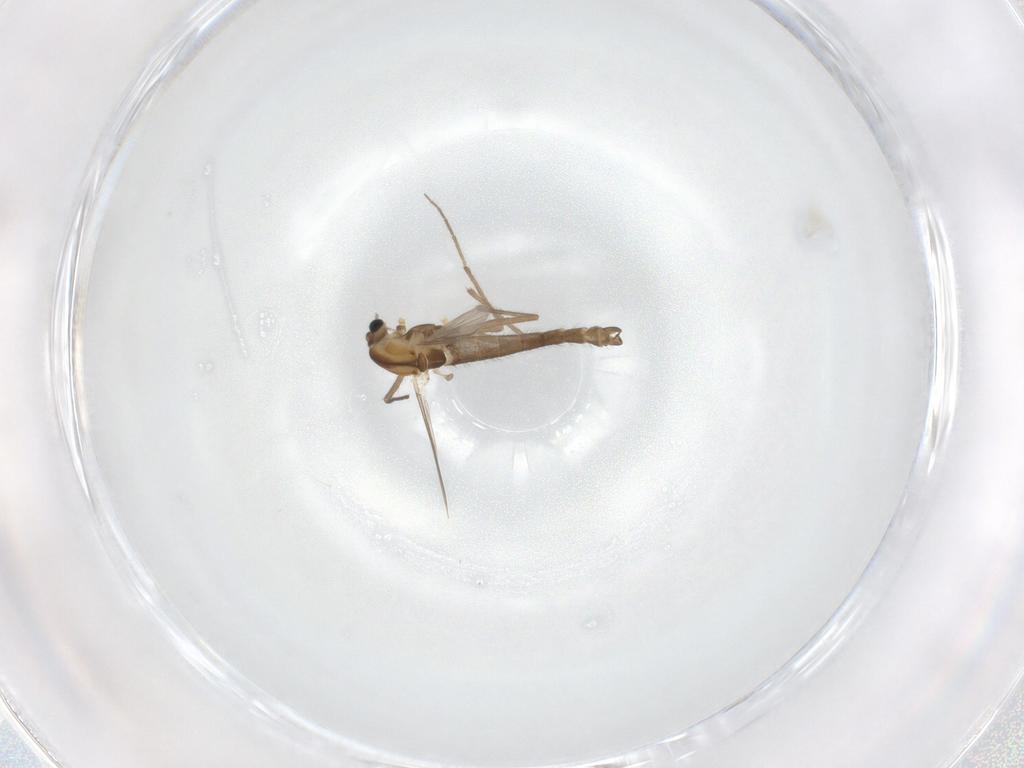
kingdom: Animalia
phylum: Arthropoda
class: Insecta
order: Diptera
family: Chironomidae
